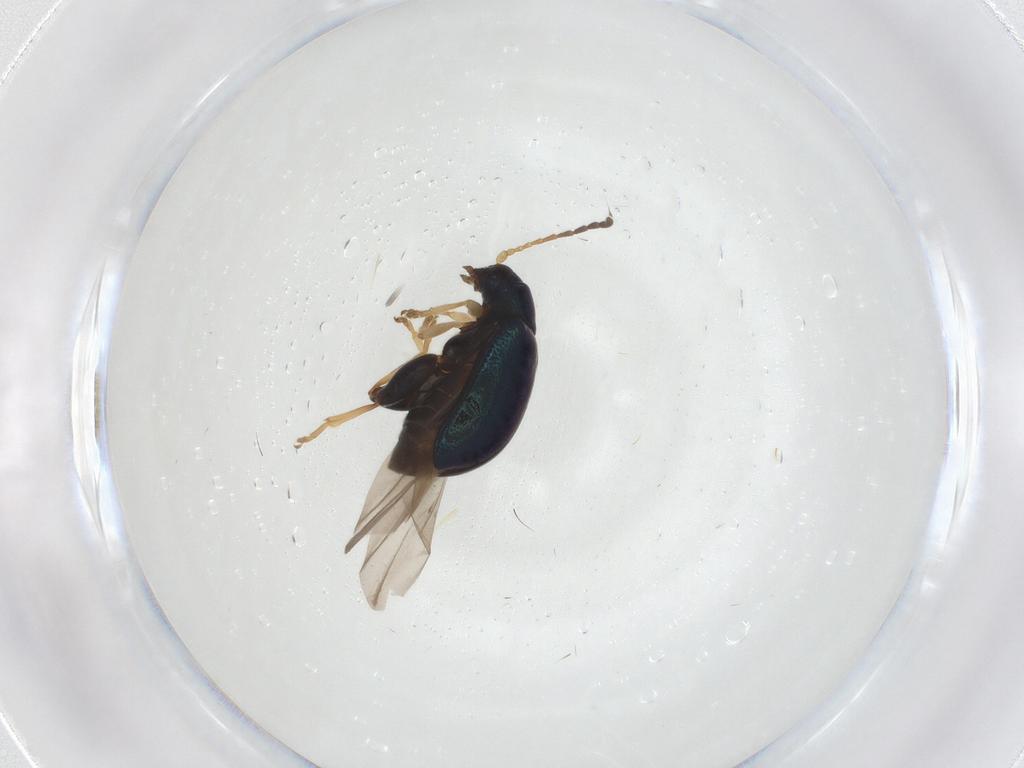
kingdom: Animalia
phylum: Arthropoda
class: Insecta
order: Coleoptera
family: Chrysomelidae
